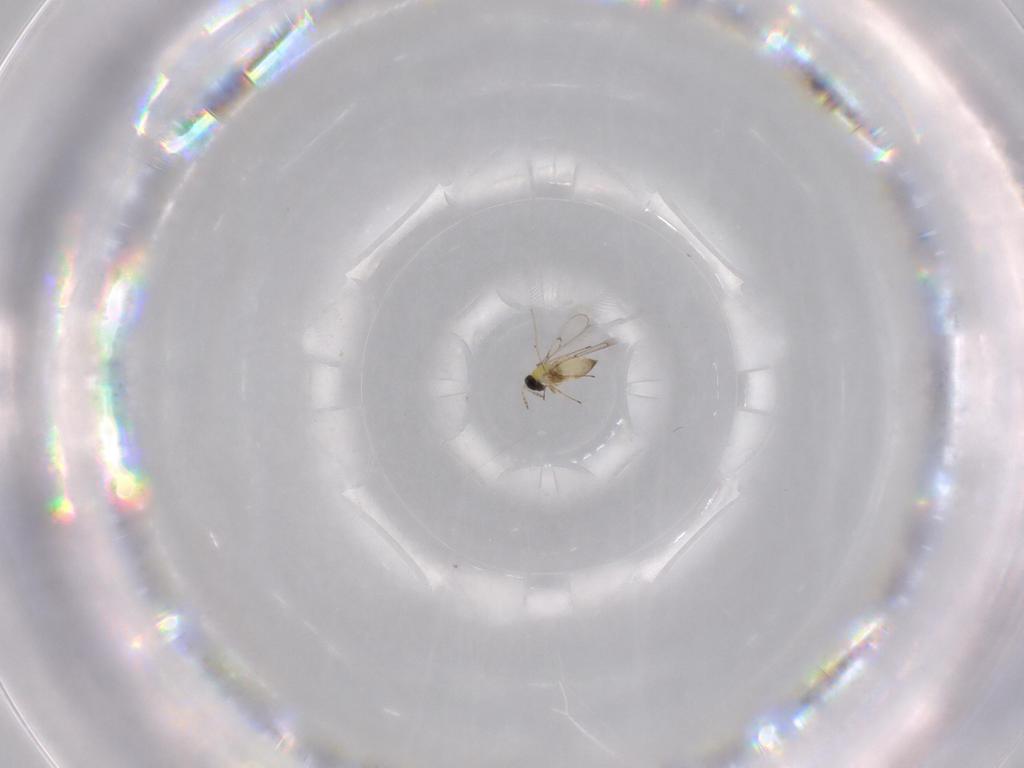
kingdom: Animalia
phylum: Arthropoda
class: Insecta
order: Hymenoptera
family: Trichogrammatidae
